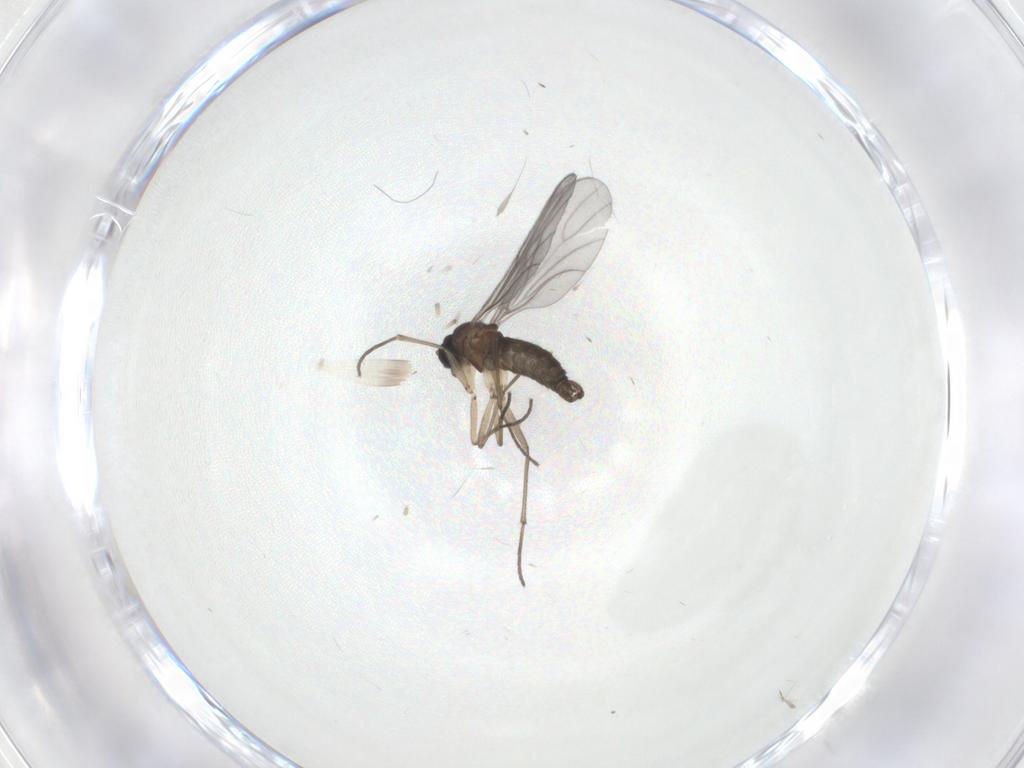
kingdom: Animalia
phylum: Arthropoda
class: Insecta
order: Diptera
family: Sciaridae
